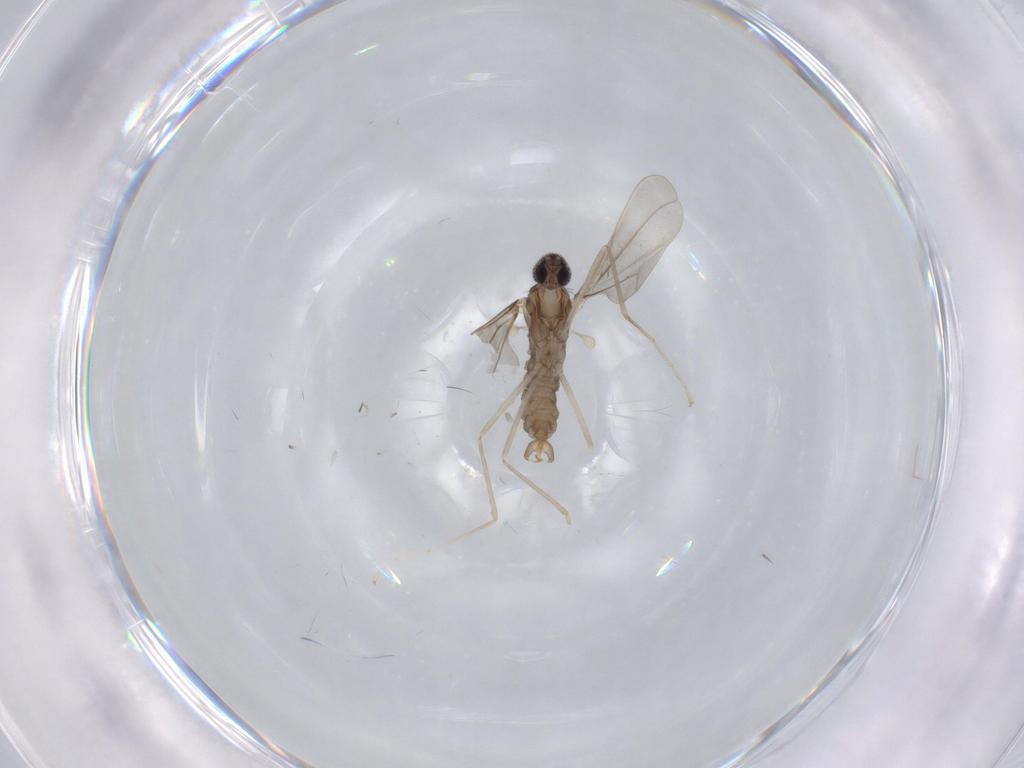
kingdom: Animalia
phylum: Arthropoda
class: Insecta
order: Diptera
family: Cecidomyiidae
